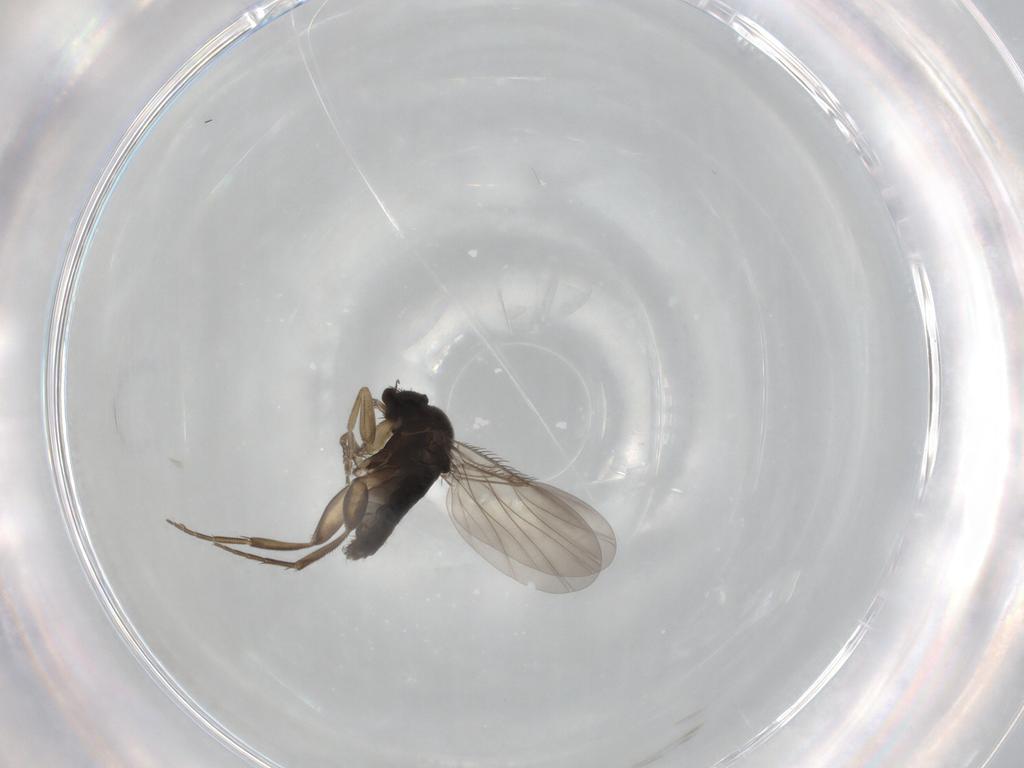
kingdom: Animalia
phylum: Arthropoda
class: Insecta
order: Diptera
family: Phoridae
